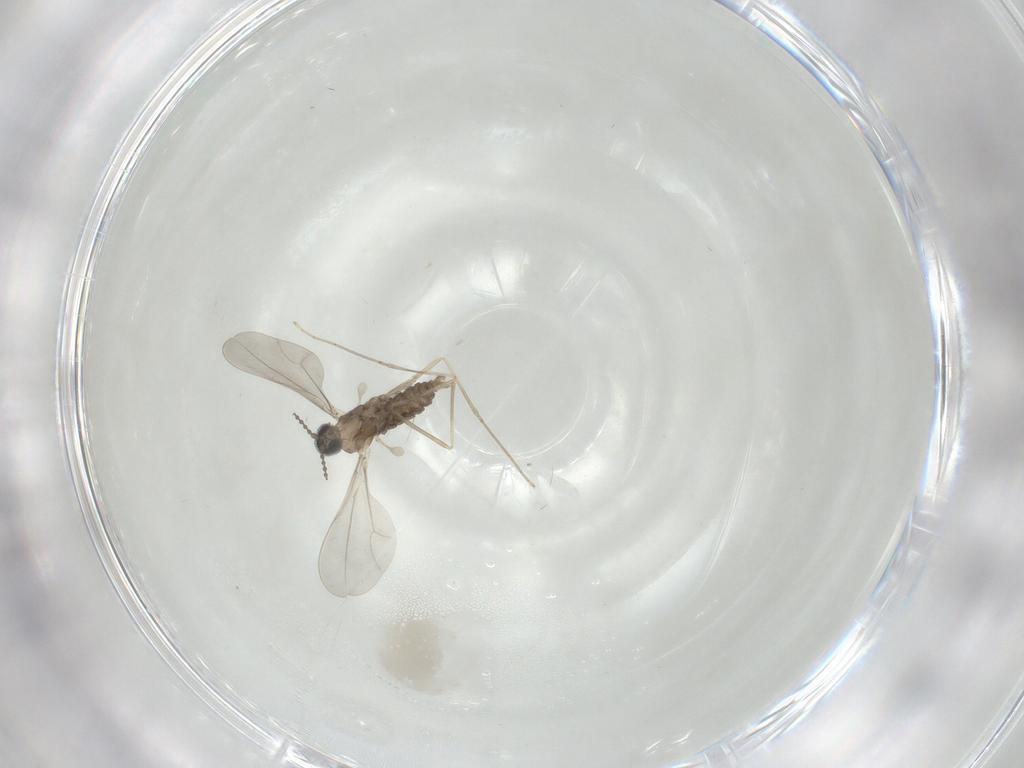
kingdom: Animalia
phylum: Arthropoda
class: Insecta
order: Diptera
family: Cecidomyiidae
